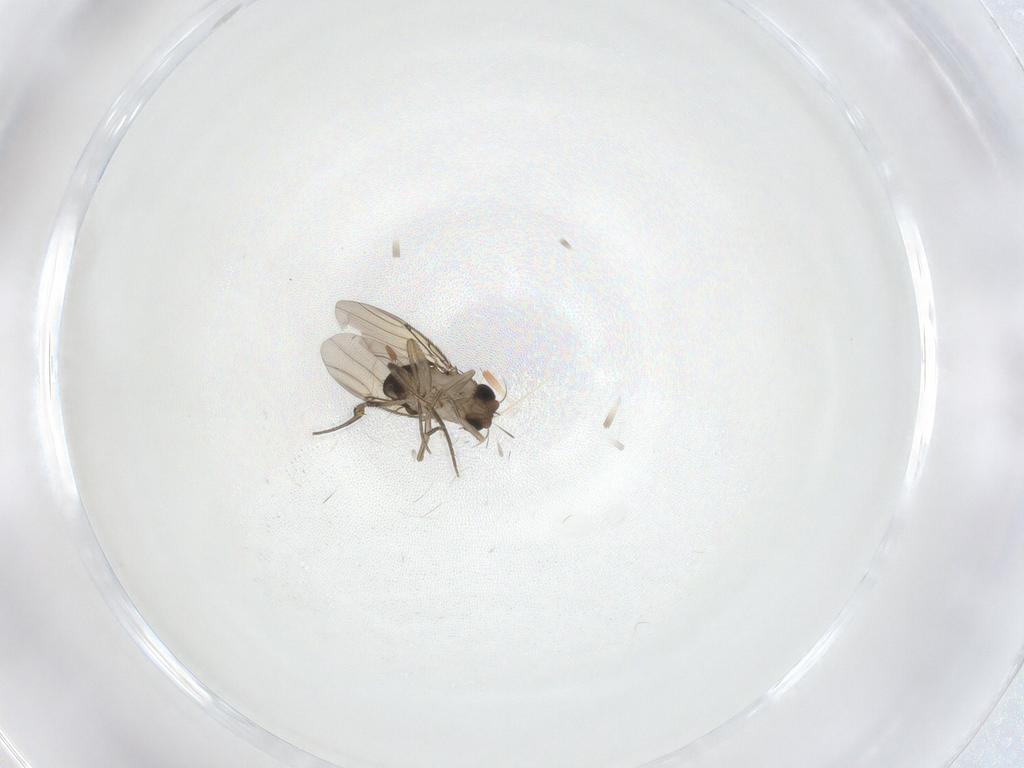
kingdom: Animalia
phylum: Arthropoda
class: Insecta
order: Diptera
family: Phoridae
